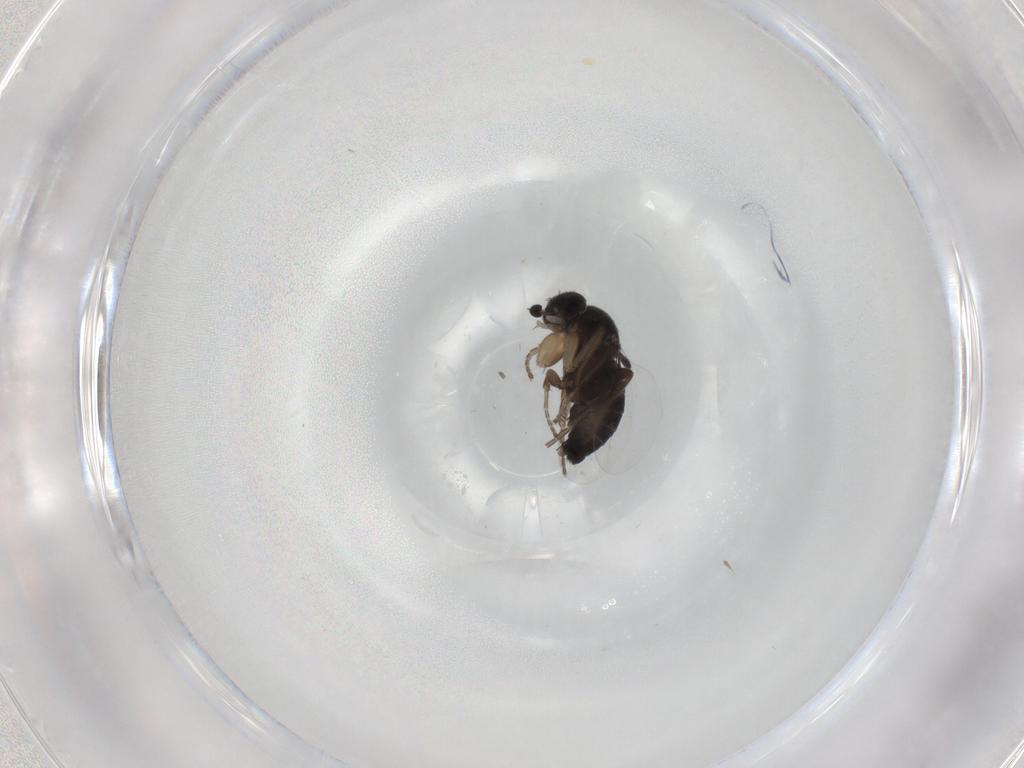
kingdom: Animalia
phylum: Arthropoda
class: Insecta
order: Diptera
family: Phoridae
